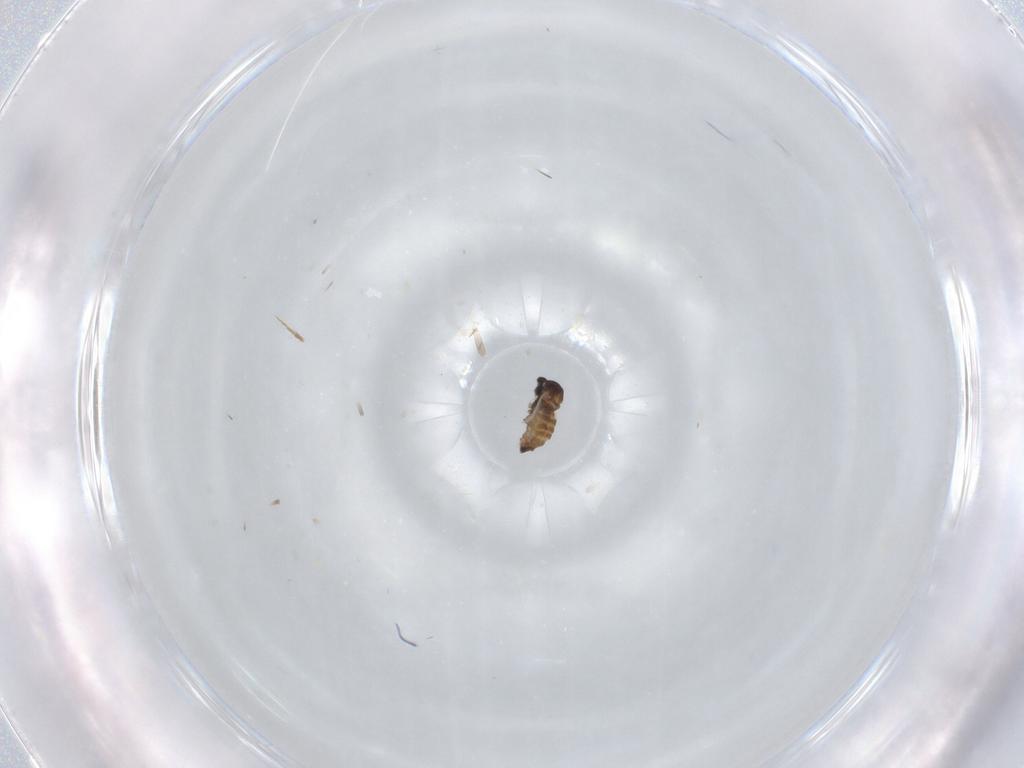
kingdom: Animalia
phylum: Arthropoda
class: Insecta
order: Diptera
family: Cecidomyiidae
